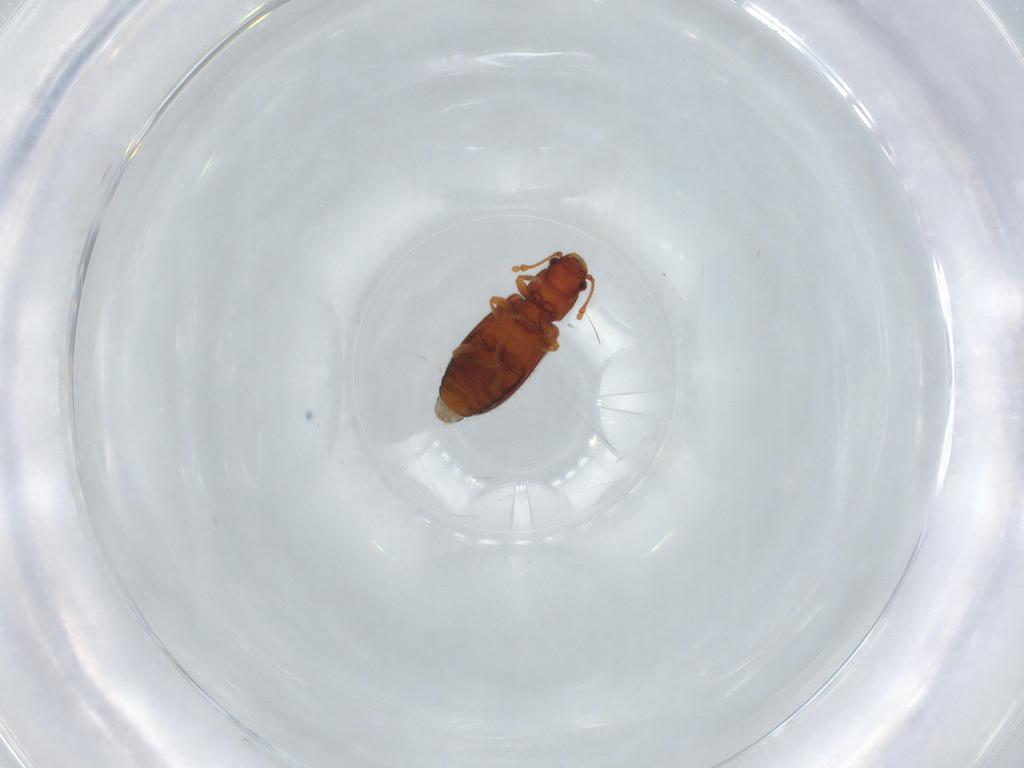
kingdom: Animalia
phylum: Arthropoda
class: Insecta
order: Coleoptera
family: Mycetophagidae
